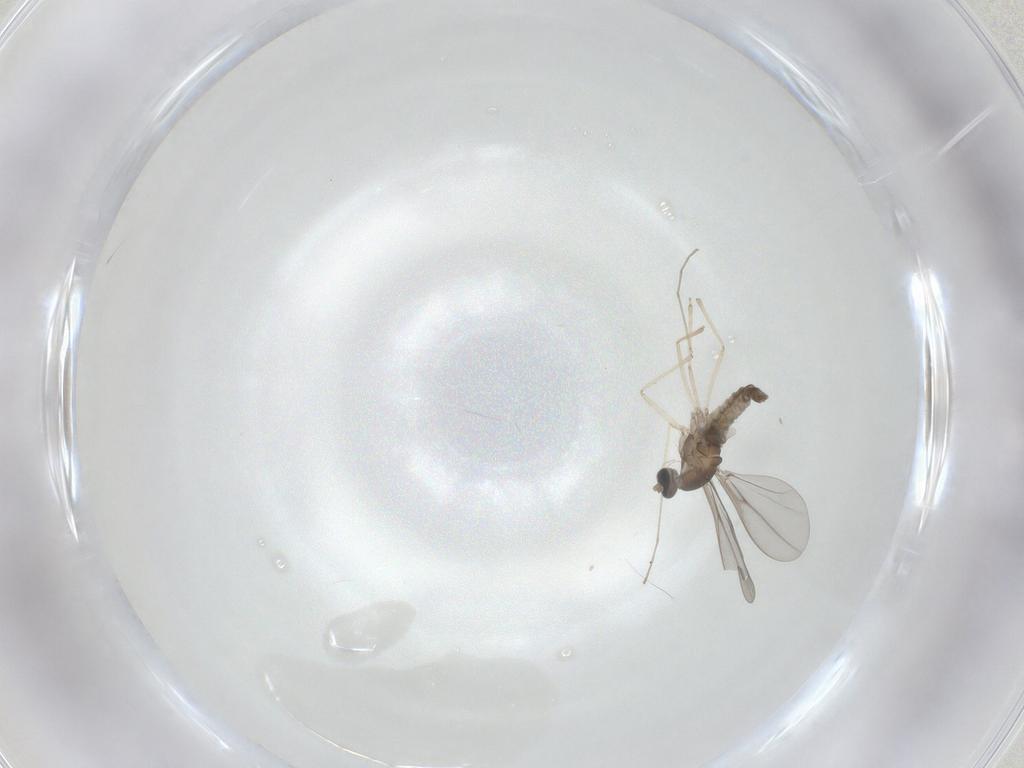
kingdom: Animalia
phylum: Arthropoda
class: Insecta
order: Diptera
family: Cecidomyiidae
